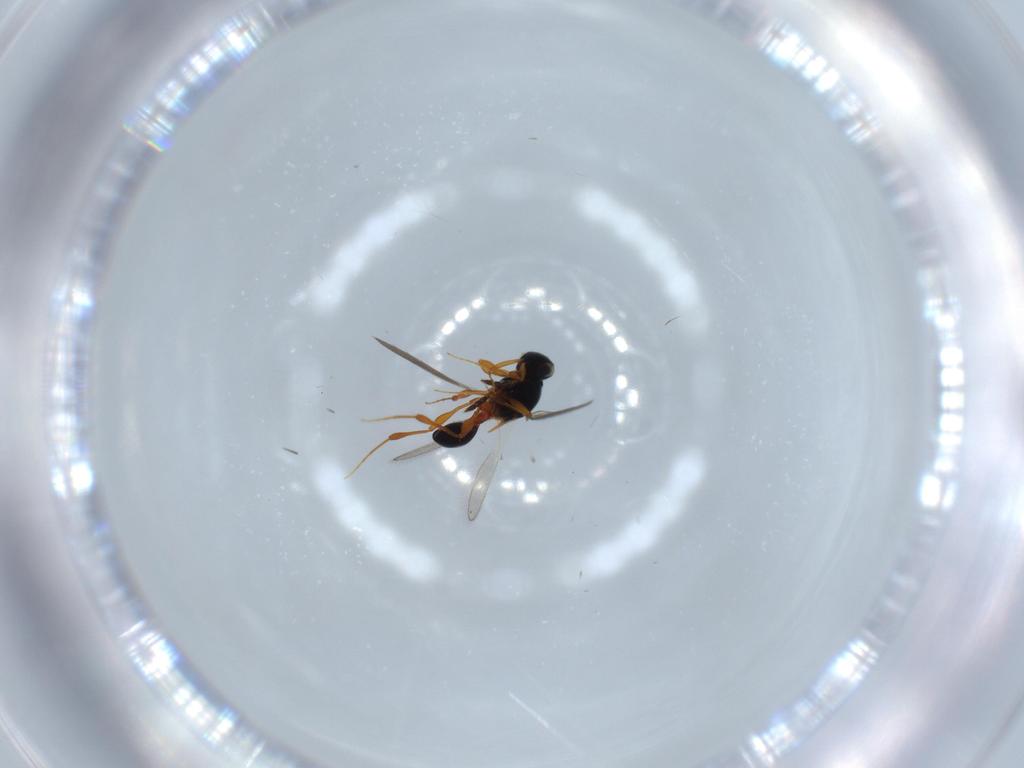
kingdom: Animalia
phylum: Arthropoda
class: Insecta
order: Hymenoptera
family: Platygastridae
